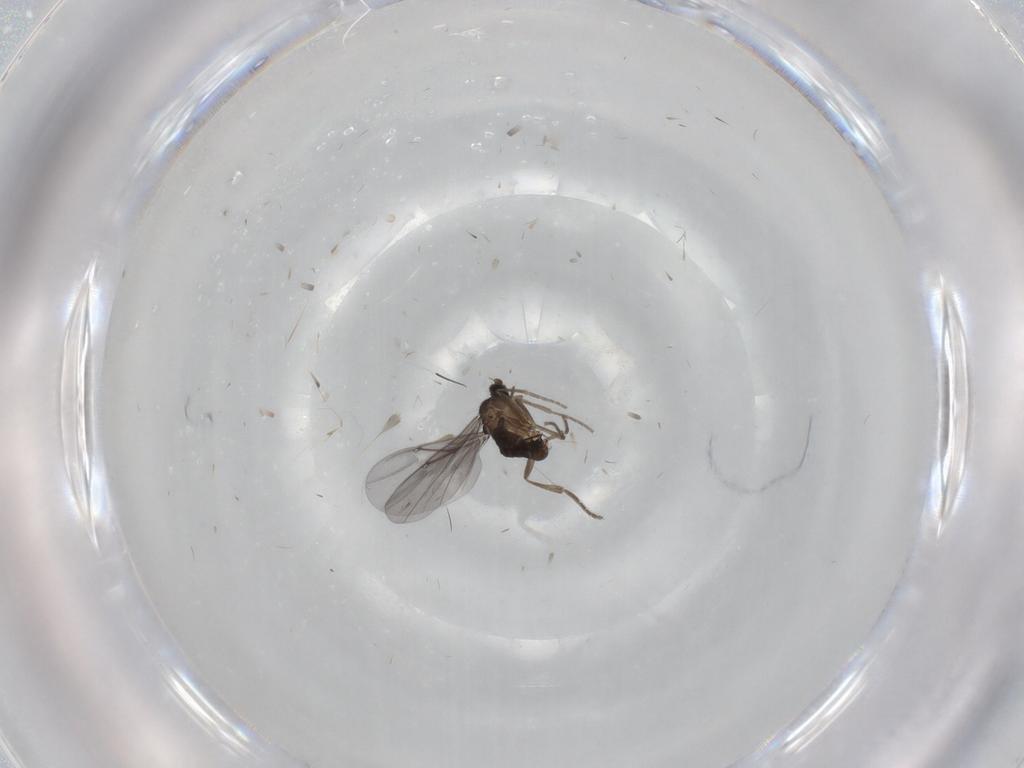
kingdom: Animalia
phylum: Arthropoda
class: Insecta
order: Diptera
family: Phoridae
